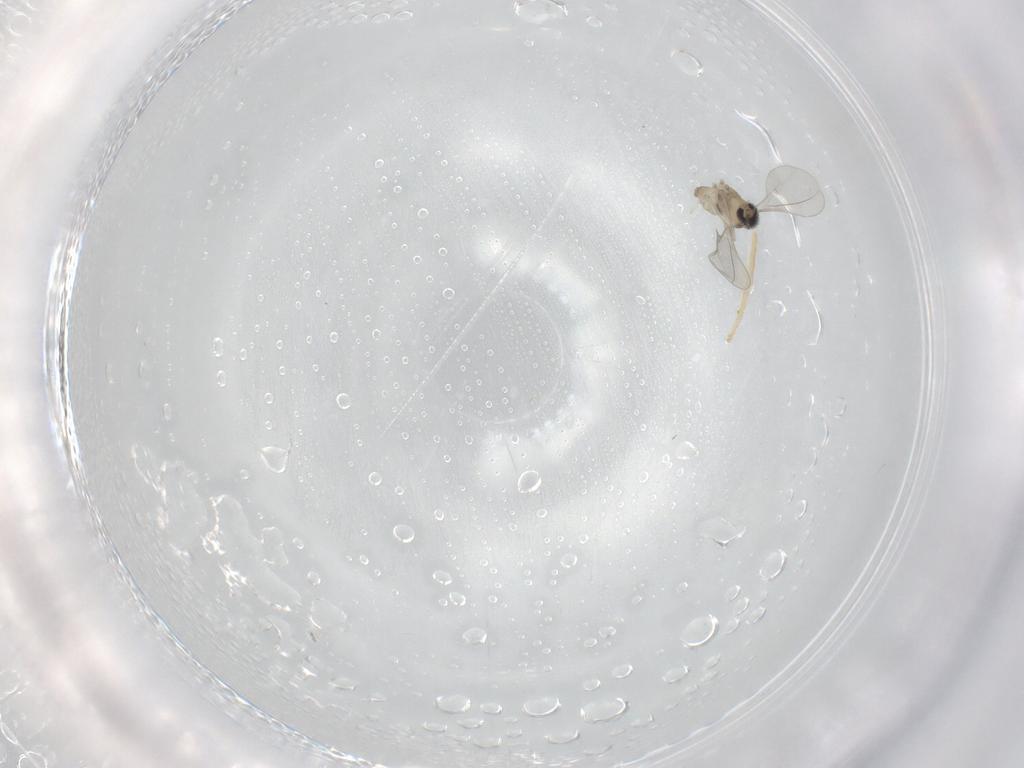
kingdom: Animalia
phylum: Arthropoda
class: Insecta
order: Diptera
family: Cecidomyiidae
